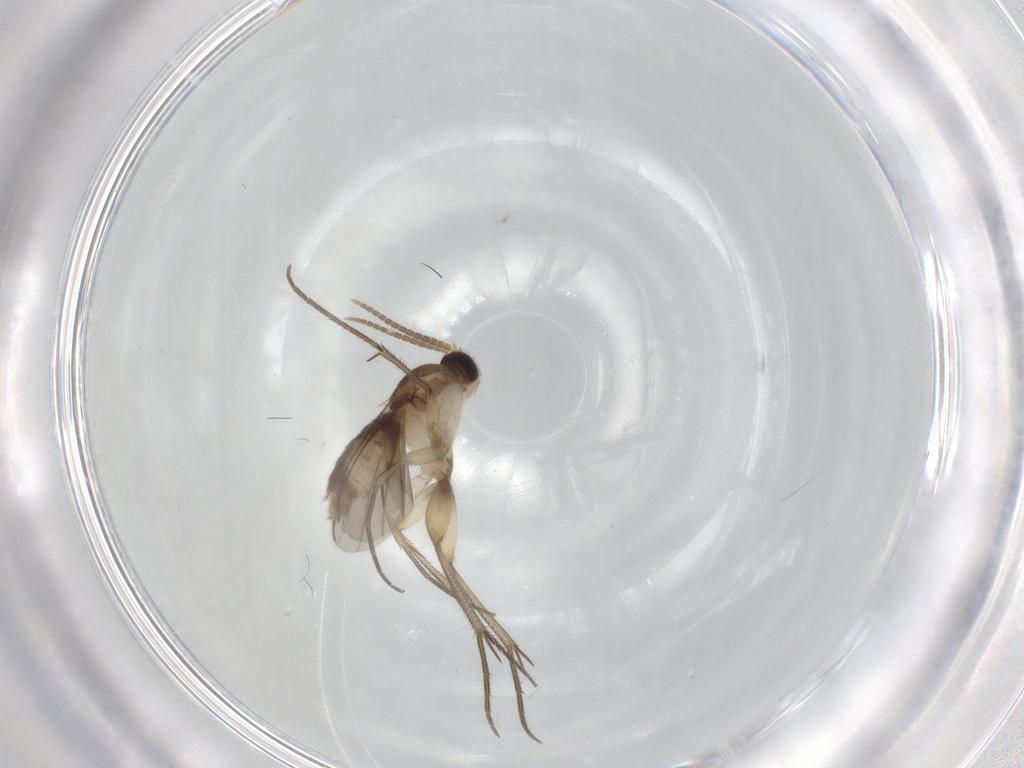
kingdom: Animalia
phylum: Arthropoda
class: Insecta
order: Diptera
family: Mycetophilidae
